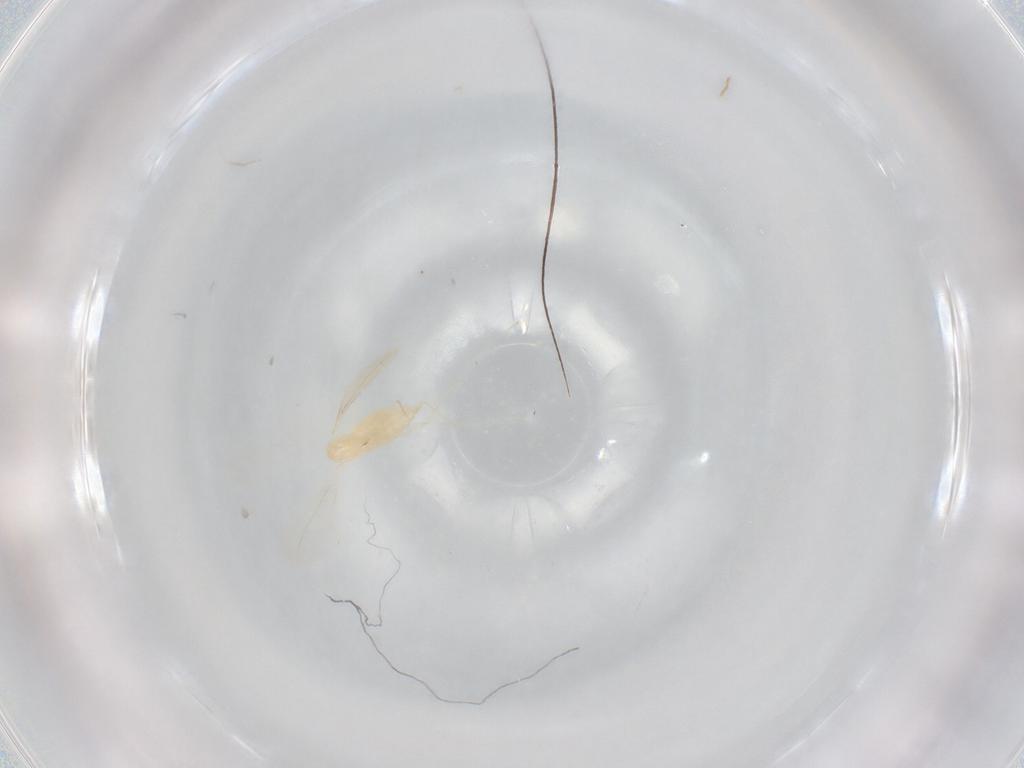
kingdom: Animalia
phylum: Arthropoda
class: Insecta
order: Diptera
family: Cecidomyiidae
